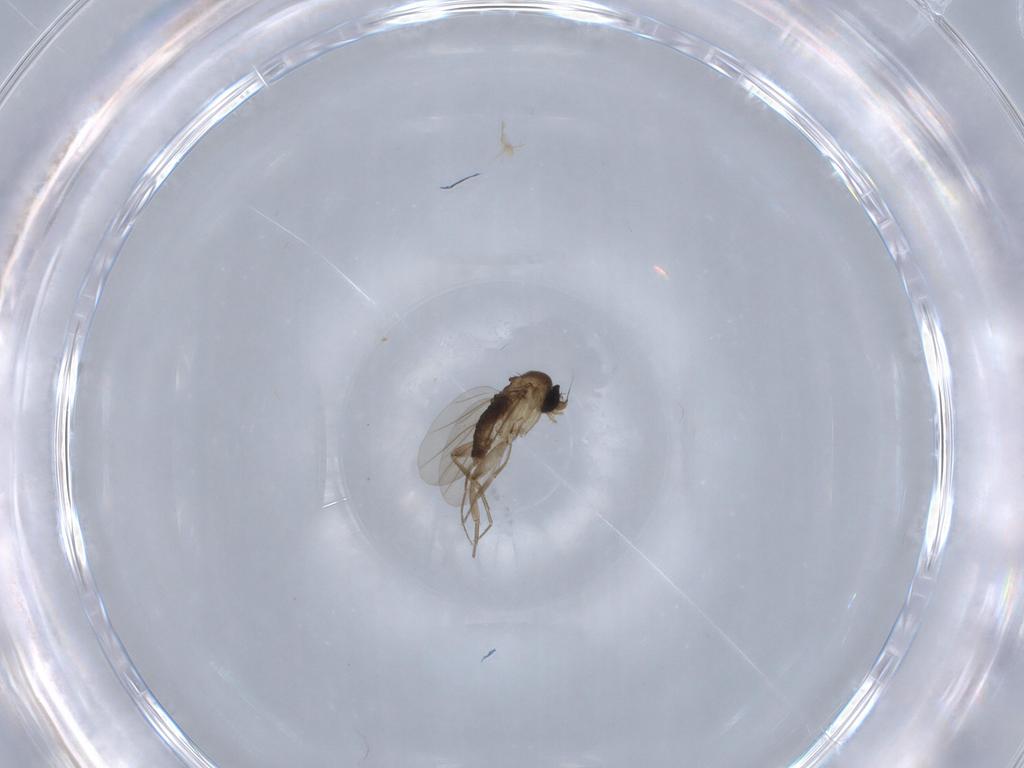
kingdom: Animalia
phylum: Arthropoda
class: Insecta
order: Diptera
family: Phoridae
